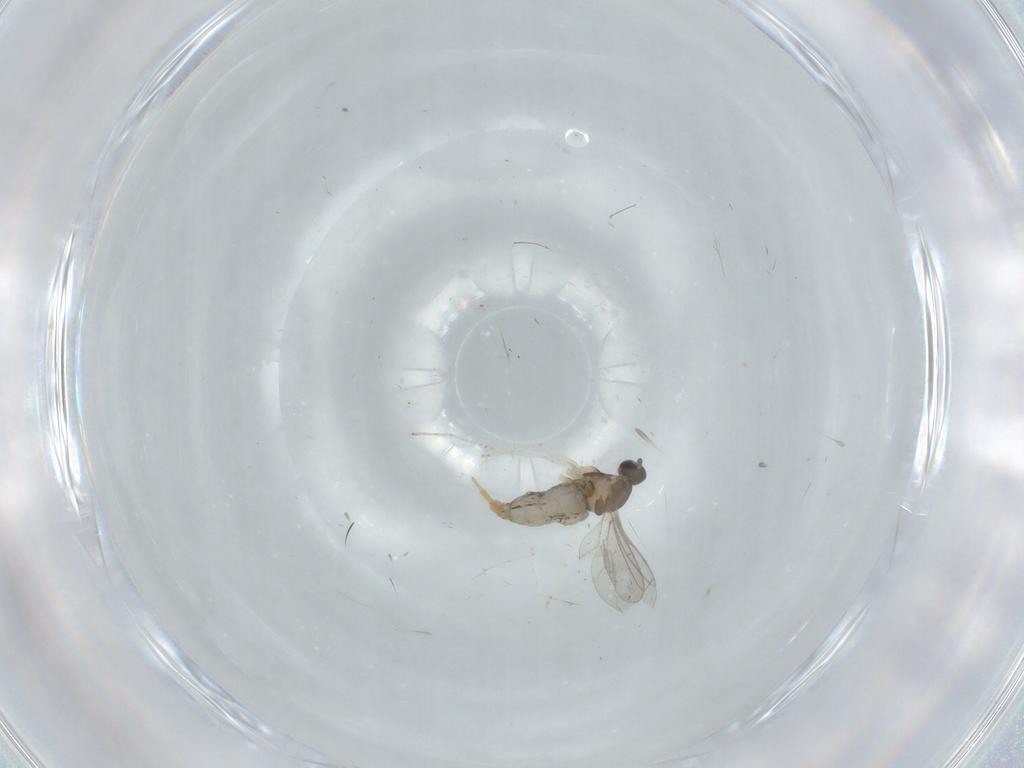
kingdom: Animalia
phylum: Arthropoda
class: Insecta
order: Diptera
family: Cecidomyiidae
